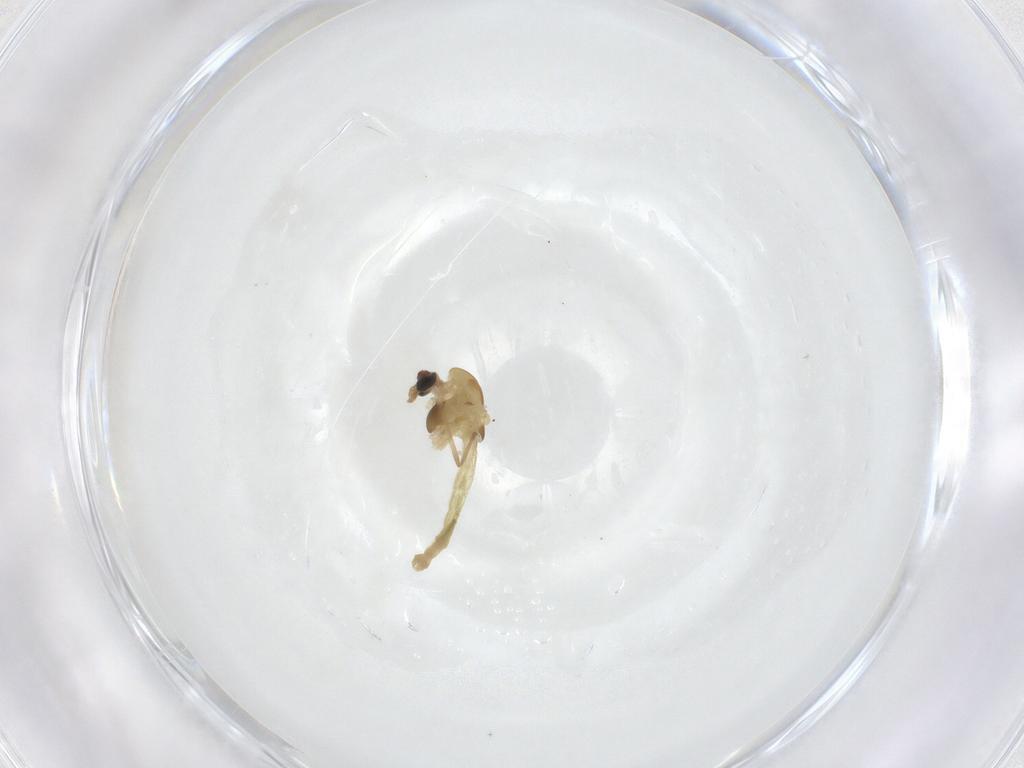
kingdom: Animalia
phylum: Arthropoda
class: Insecta
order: Diptera
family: Chironomidae
